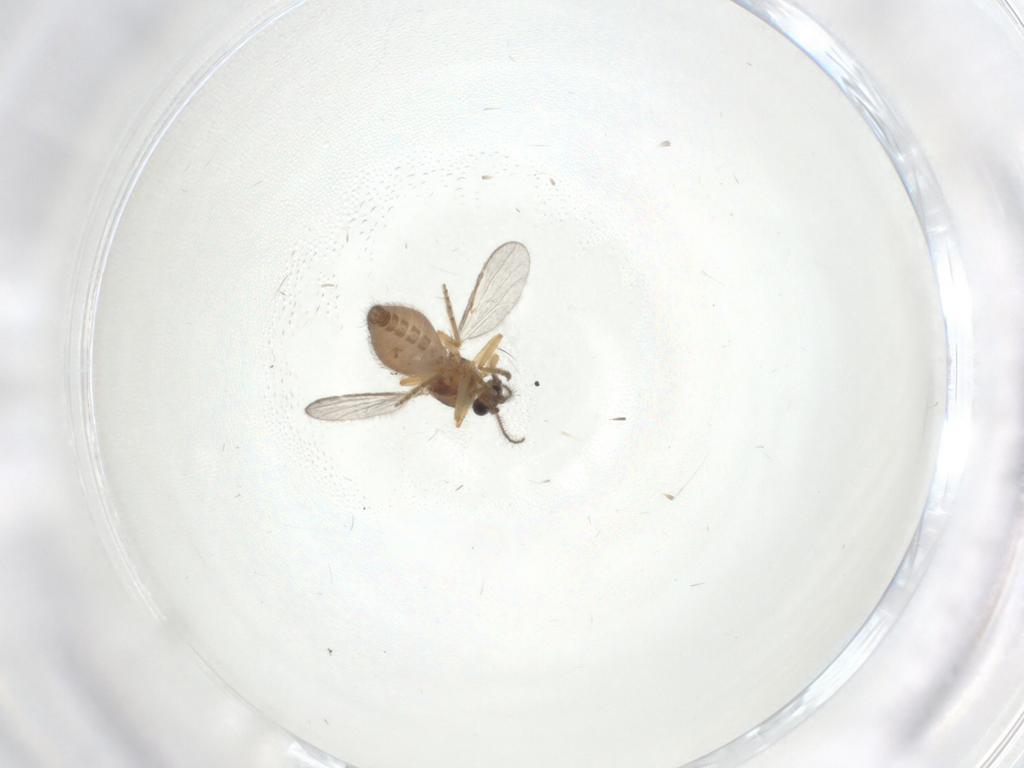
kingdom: Animalia
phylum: Arthropoda
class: Insecta
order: Diptera
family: Ceratopogonidae
